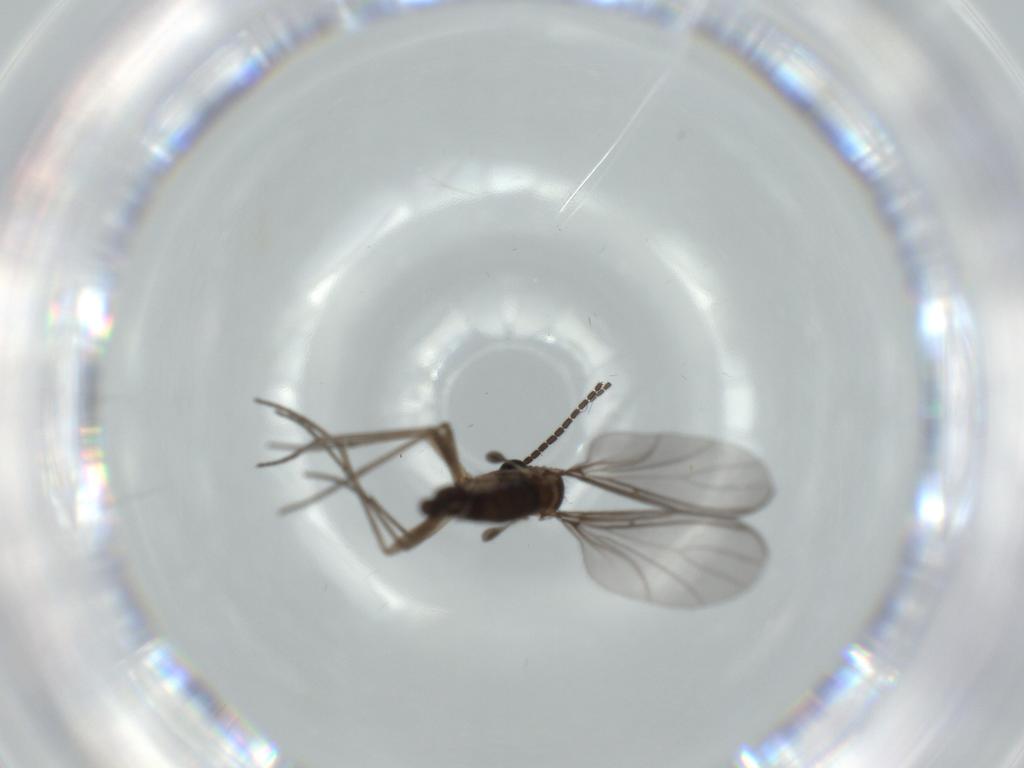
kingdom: Animalia
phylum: Arthropoda
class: Insecta
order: Diptera
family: Sciaridae
